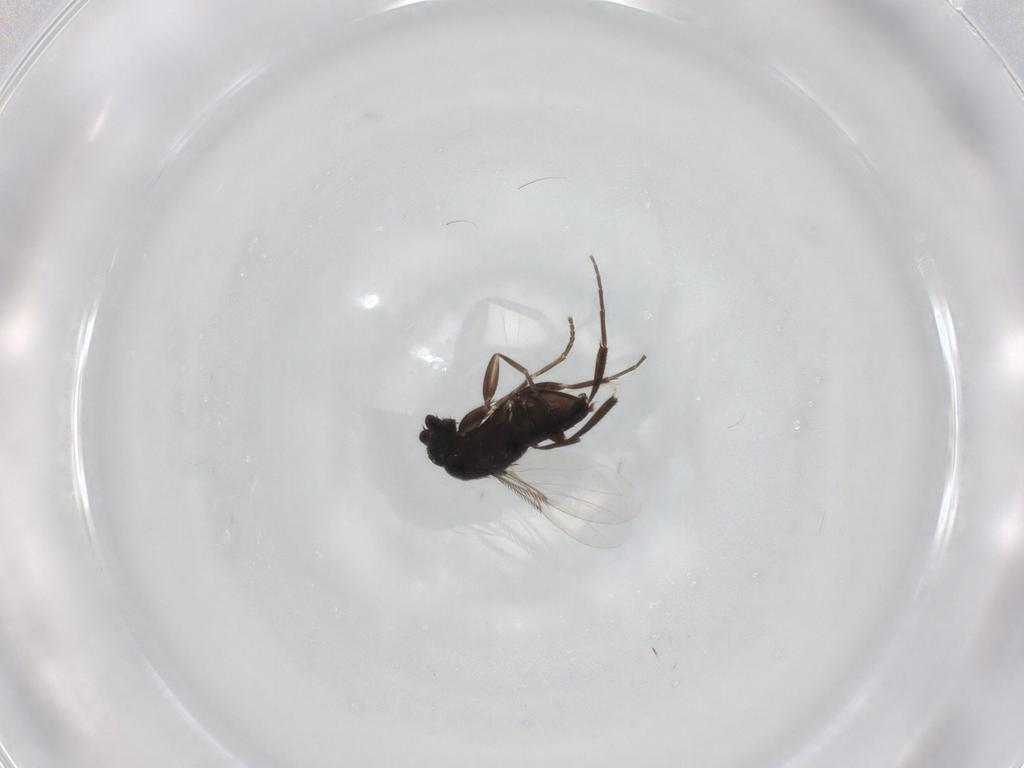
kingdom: Animalia
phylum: Arthropoda
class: Insecta
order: Diptera
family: Phoridae
